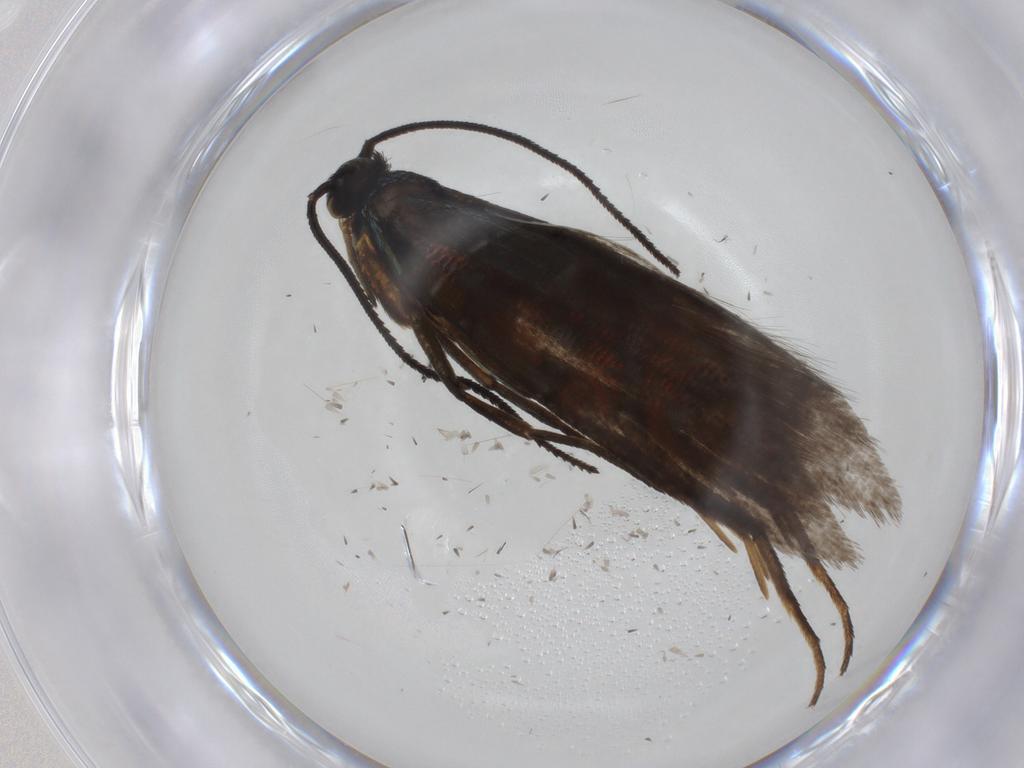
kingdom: Animalia
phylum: Arthropoda
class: Insecta
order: Lepidoptera
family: Argyresthiidae
